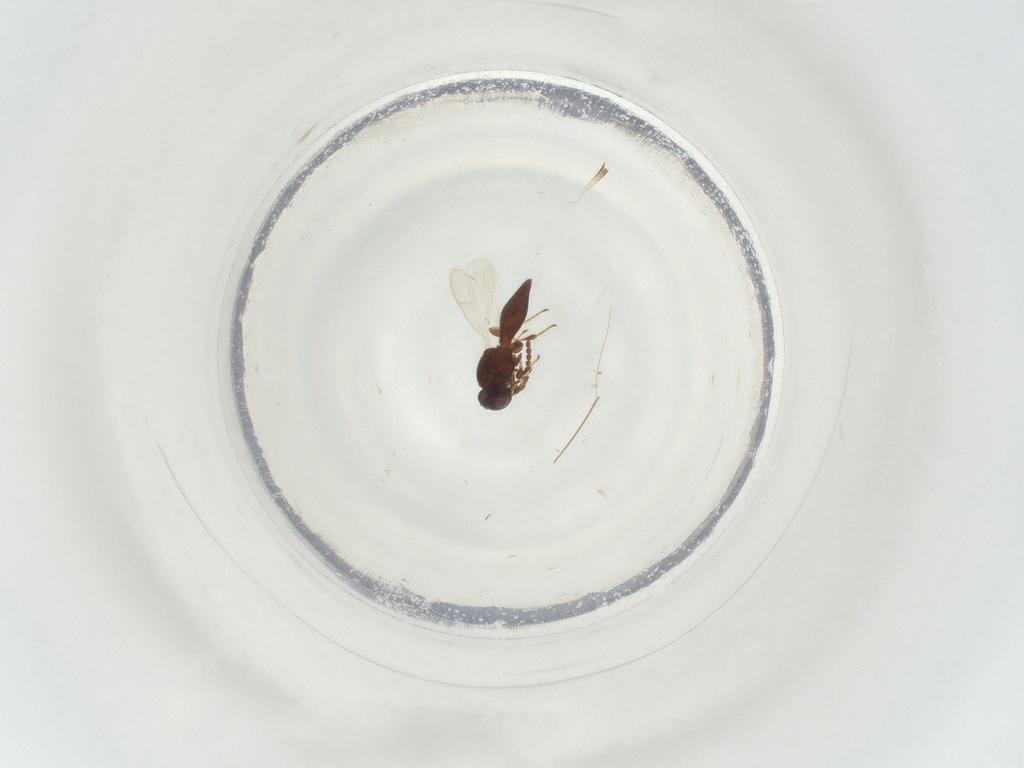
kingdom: Animalia
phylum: Arthropoda
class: Insecta
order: Hymenoptera
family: Platygastridae
